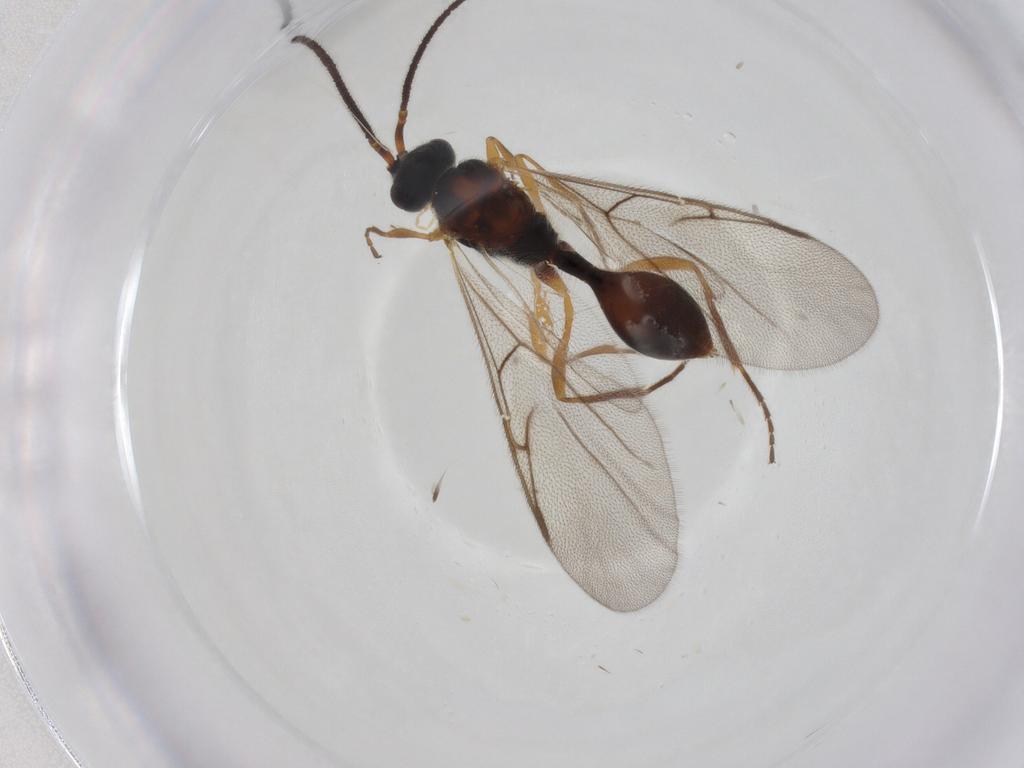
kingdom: Animalia
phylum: Arthropoda
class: Insecta
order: Hymenoptera
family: Diapriidae
